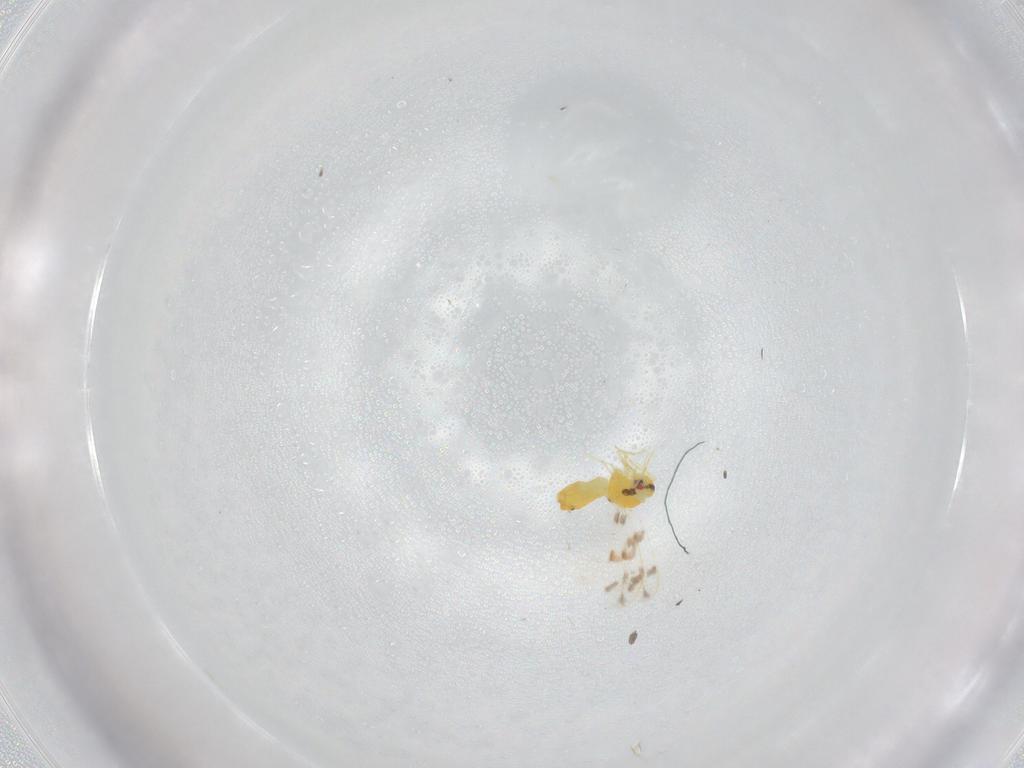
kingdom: Animalia
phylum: Arthropoda
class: Insecta
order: Hemiptera
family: Aleyrodidae
